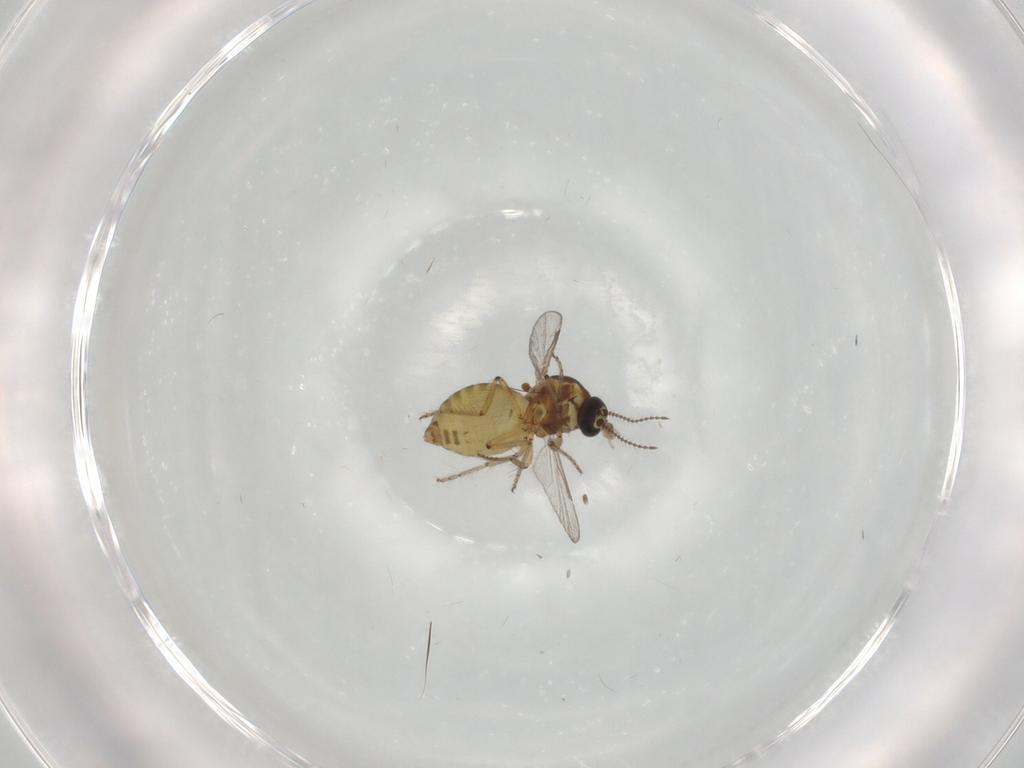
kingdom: Animalia
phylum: Arthropoda
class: Insecta
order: Diptera
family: Ceratopogonidae
